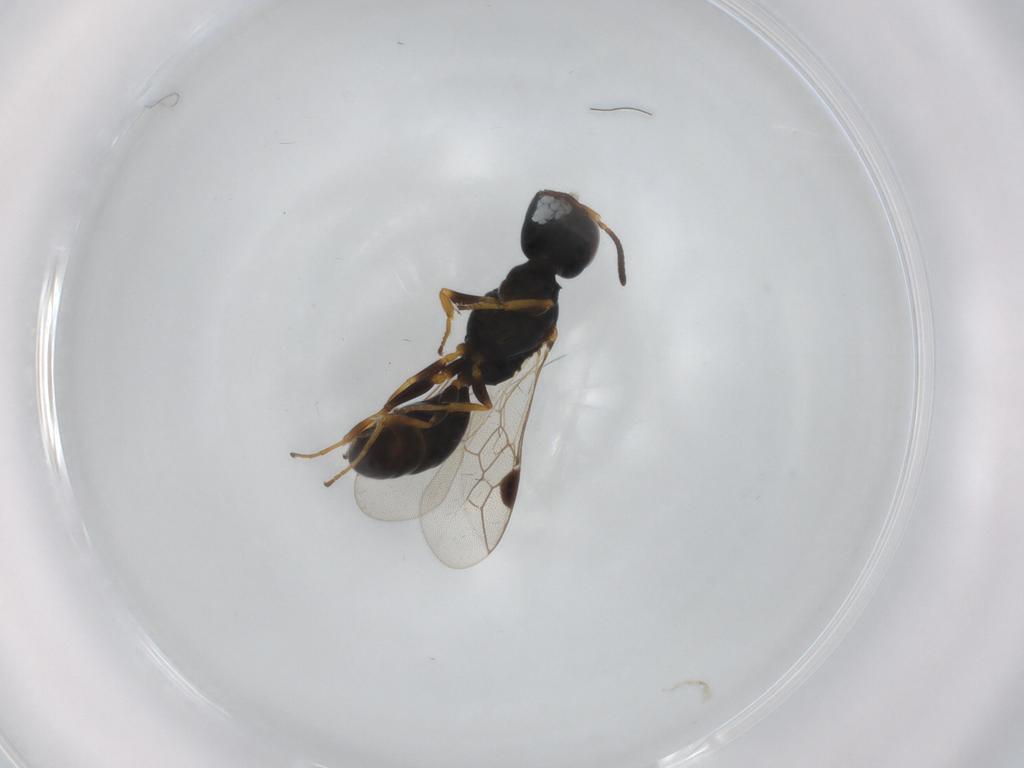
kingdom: Animalia
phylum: Arthropoda
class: Insecta
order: Hymenoptera
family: Pemphredonidae
